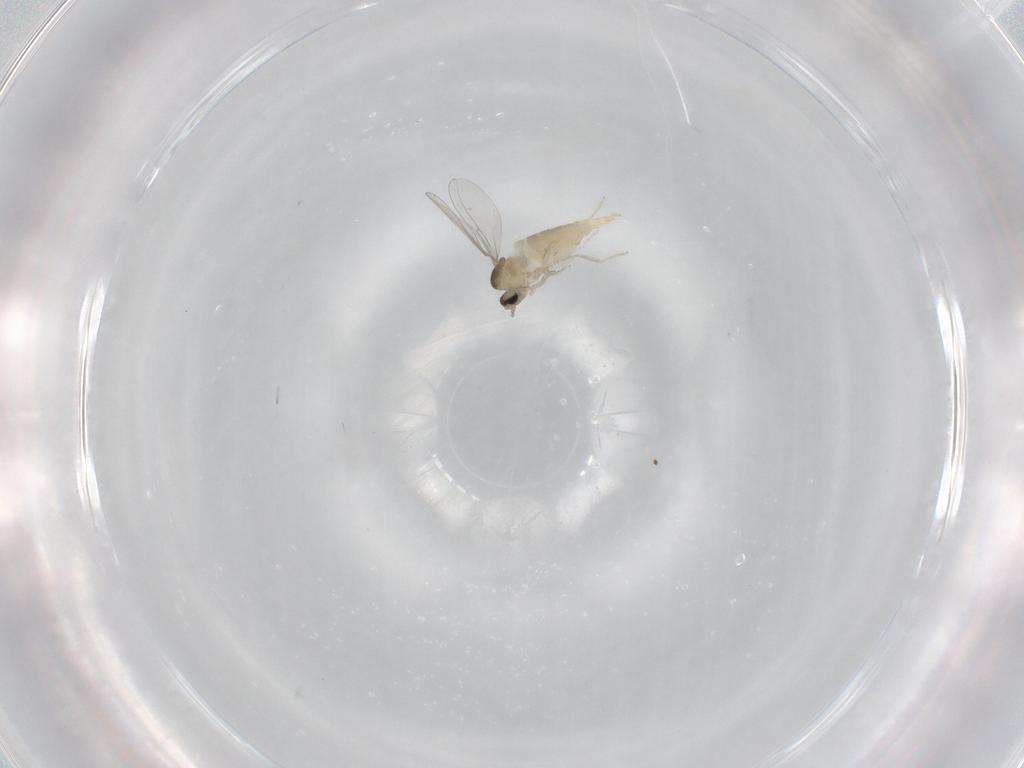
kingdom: Animalia
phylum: Arthropoda
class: Insecta
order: Diptera
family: Cecidomyiidae
